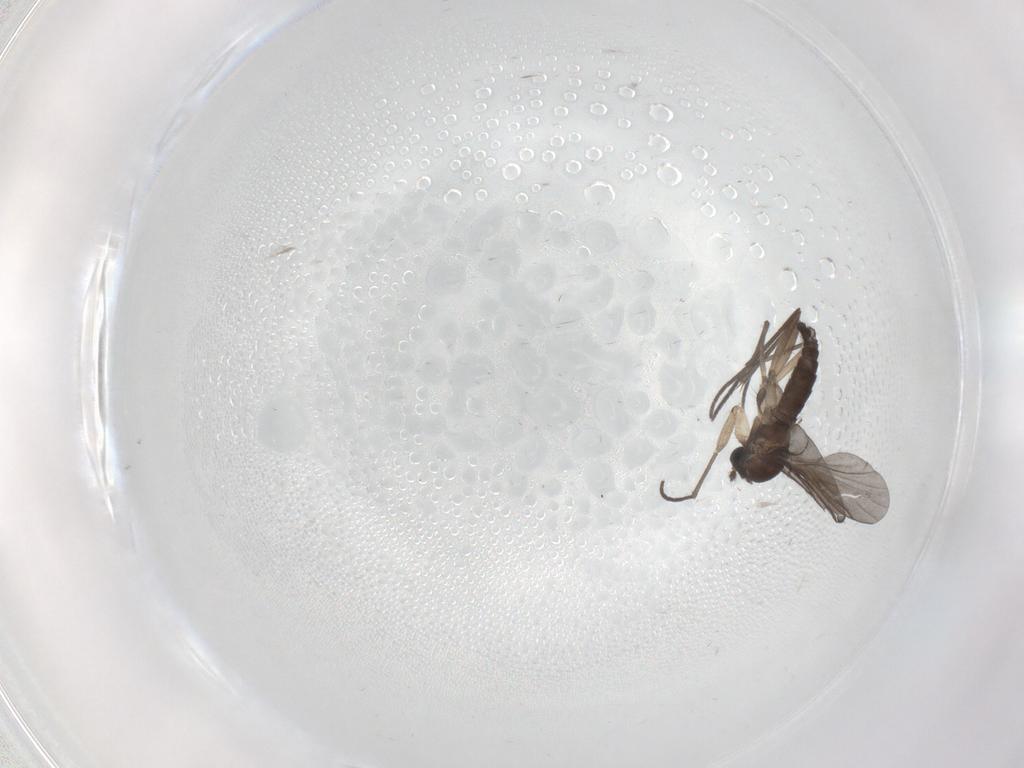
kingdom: Animalia
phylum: Arthropoda
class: Insecta
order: Diptera
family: Sciaridae
